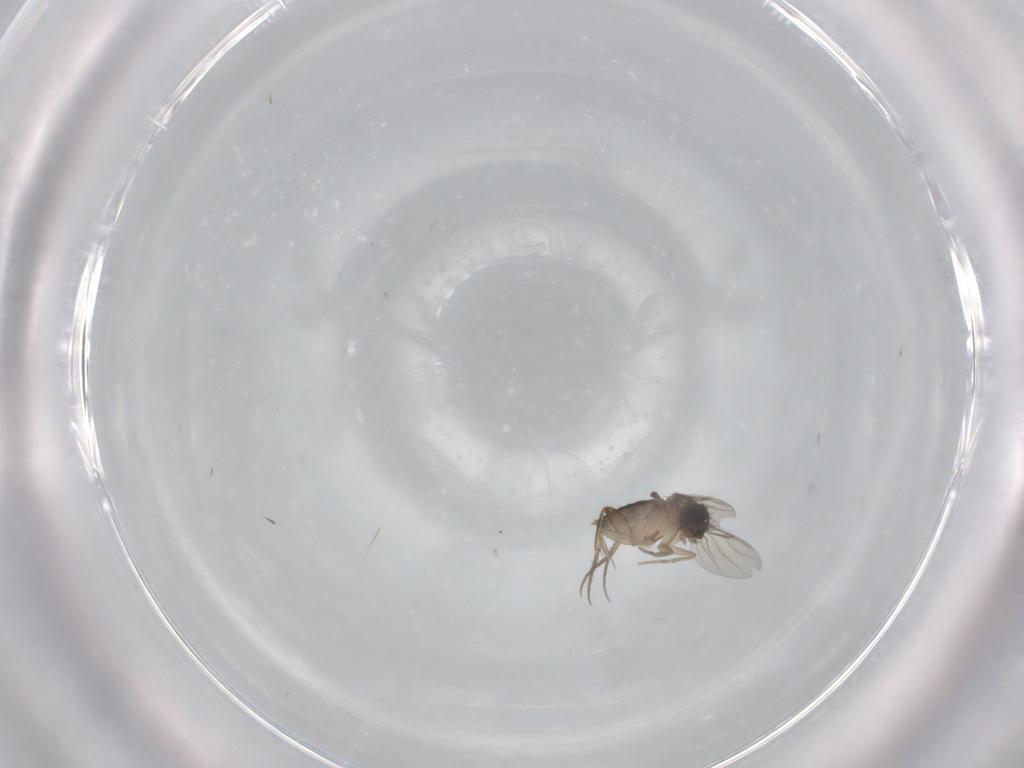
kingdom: Animalia
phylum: Arthropoda
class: Insecta
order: Diptera
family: Phoridae
